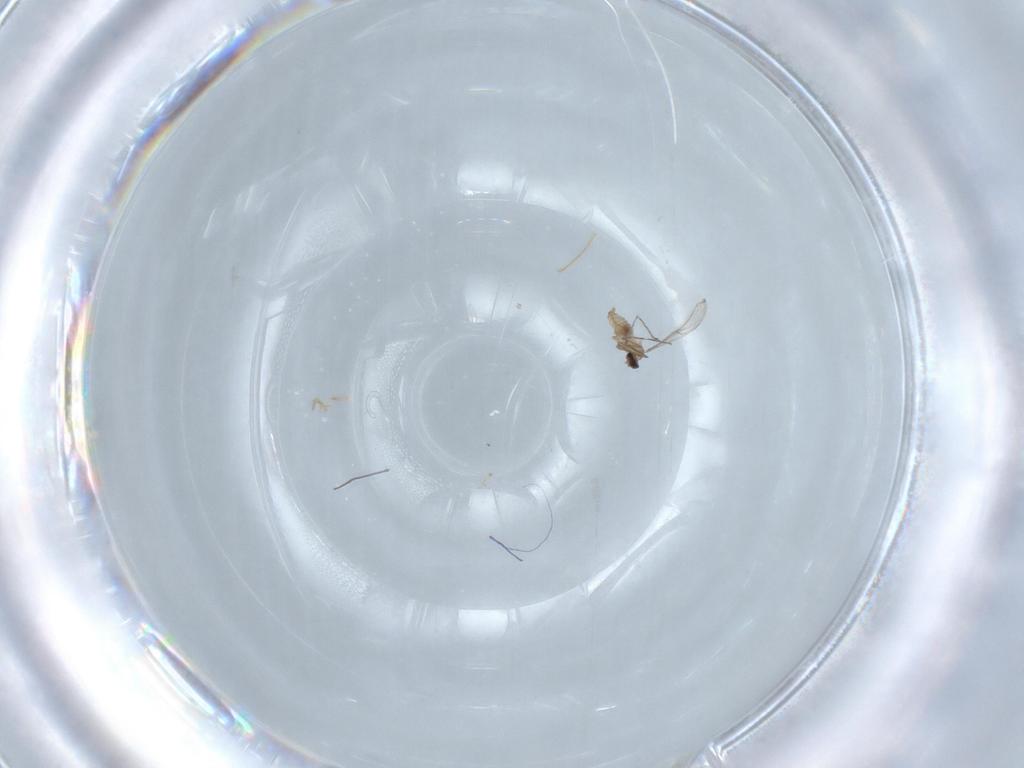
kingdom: Animalia
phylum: Arthropoda
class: Insecta
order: Diptera
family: Cecidomyiidae
